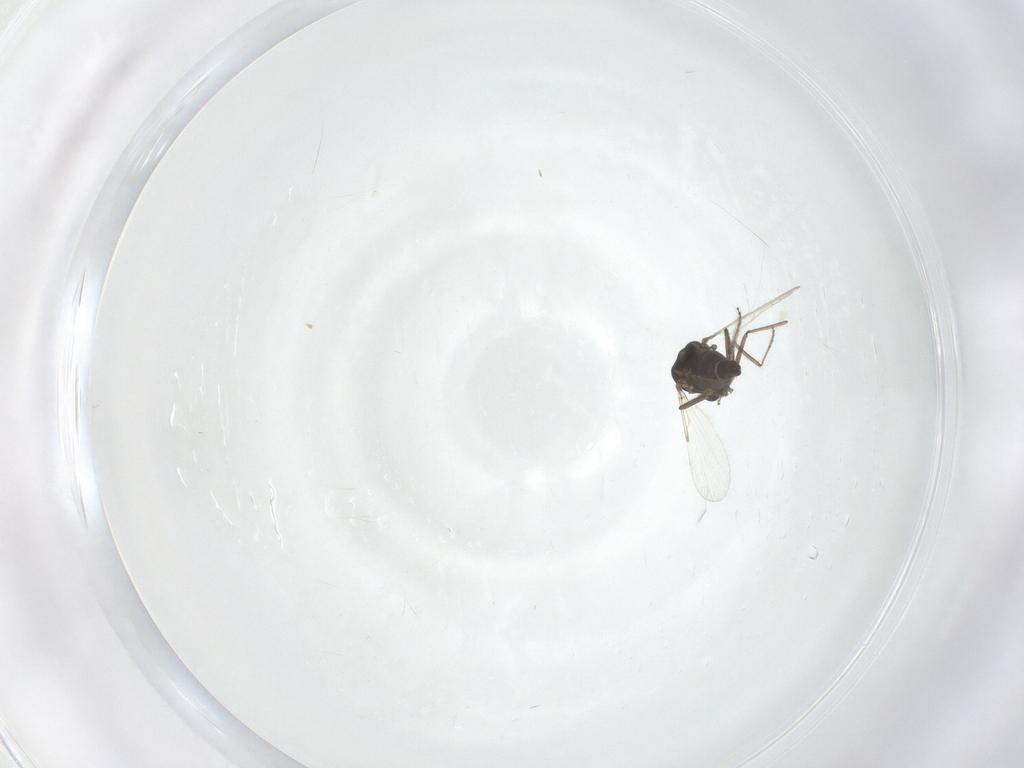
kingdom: Animalia
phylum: Arthropoda
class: Insecta
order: Diptera
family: Ceratopogonidae
